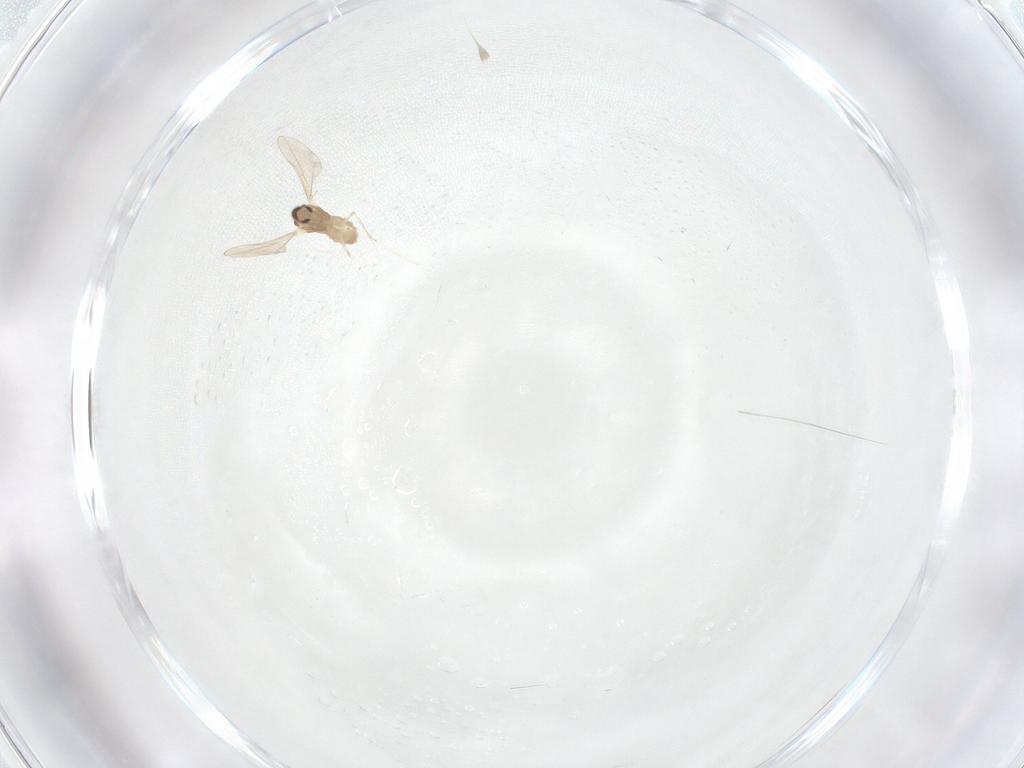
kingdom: Animalia
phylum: Arthropoda
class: Insecta
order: Diptera
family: Cecidomyiidae
